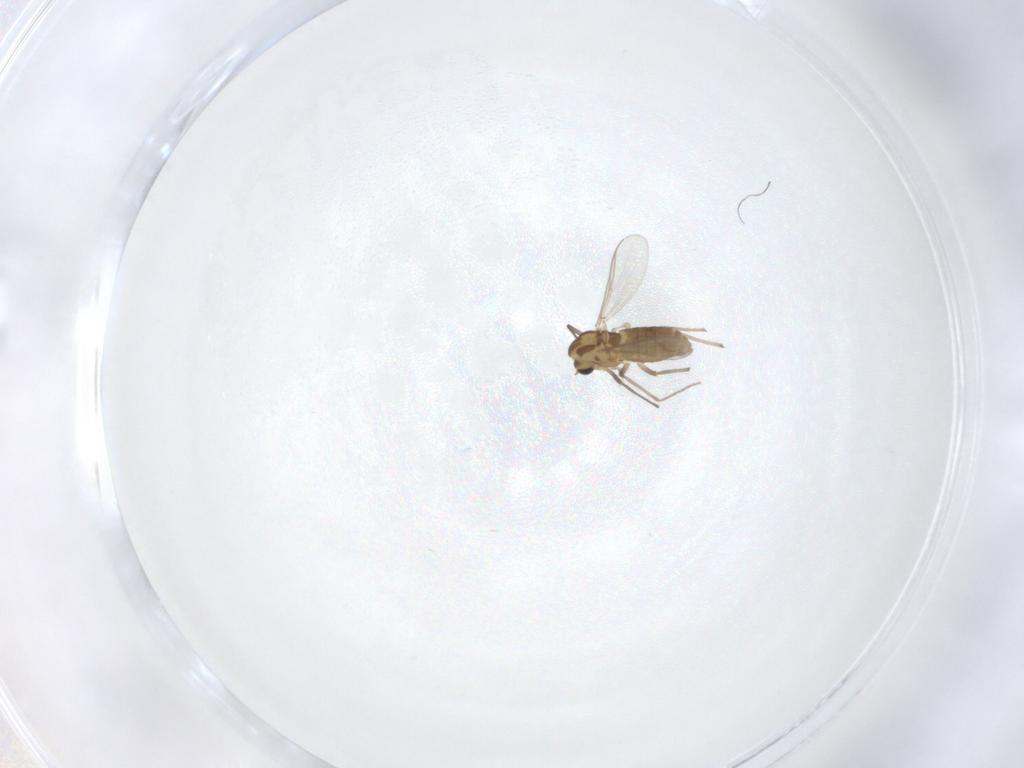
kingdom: Animalia
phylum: Arthropoda
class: Insecta
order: Diptera
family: Chironomidae
